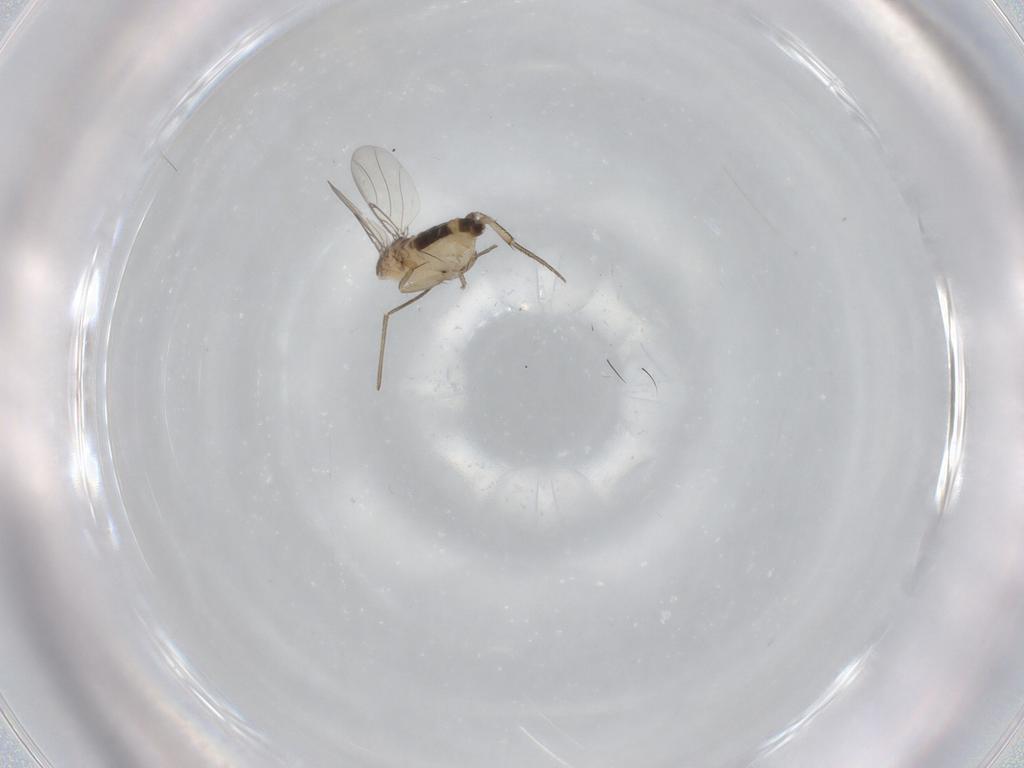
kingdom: Animalia
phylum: Arthropoda
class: Insecta
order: Diptera
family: Phoridae
